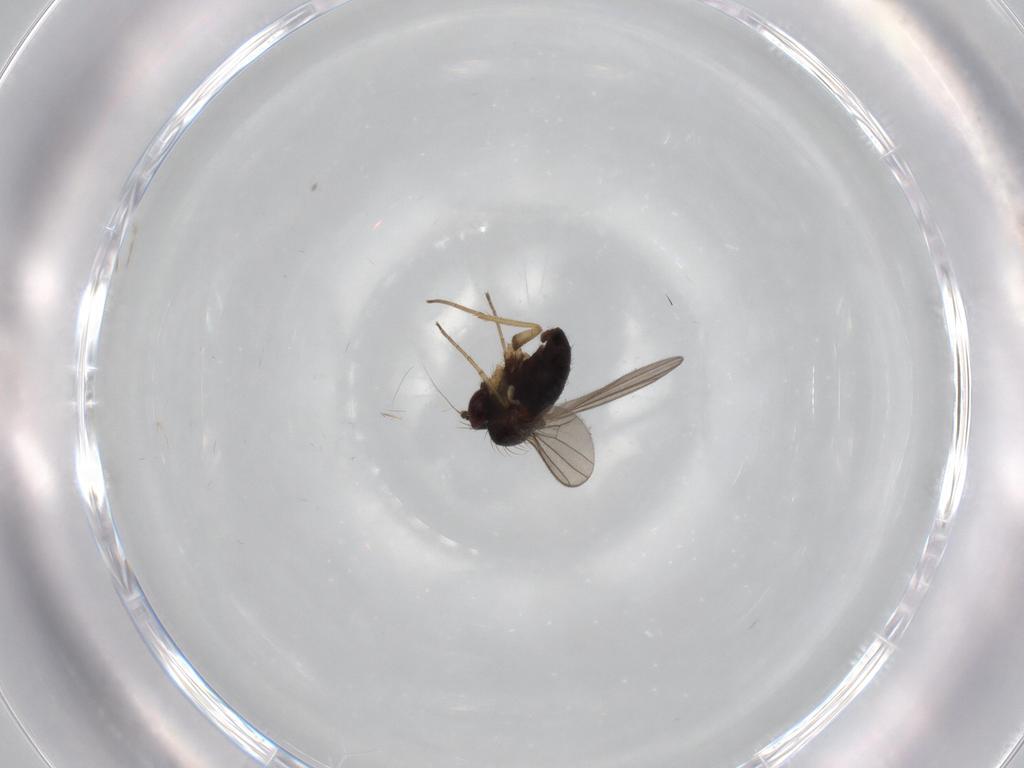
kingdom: Animalia
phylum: Arthropoda
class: Insecta
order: Diptera
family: Dolichopodidae
